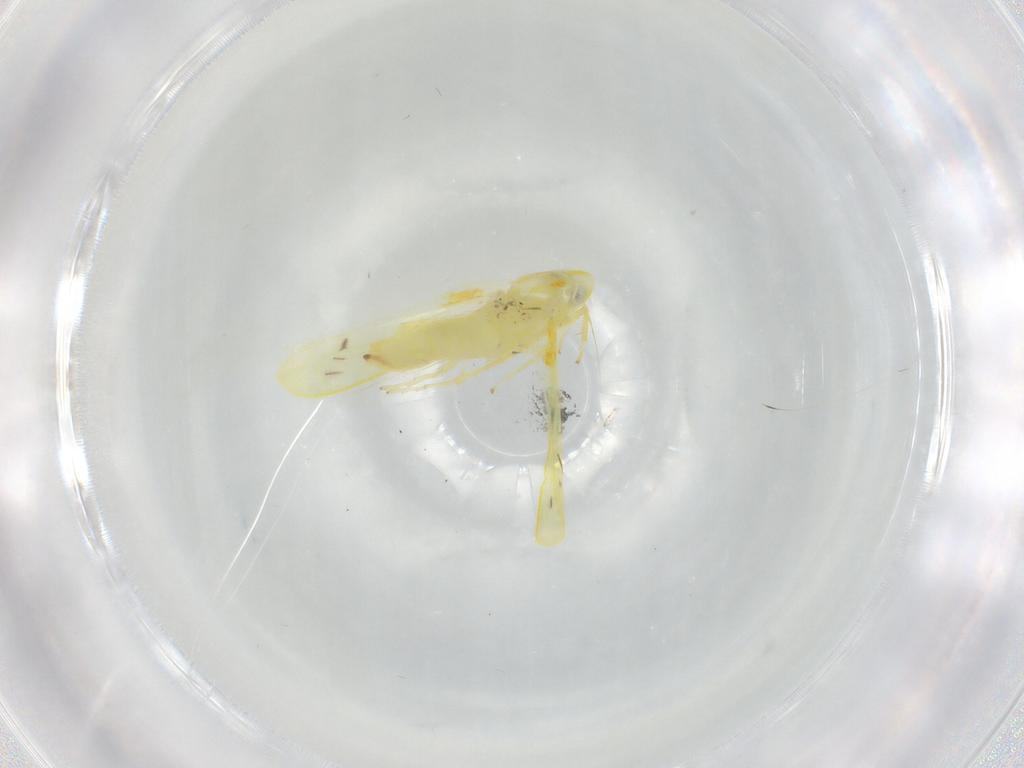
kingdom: Animalia
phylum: Arthropoda
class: Insecta
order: Hemiptera
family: Cicadellidae
